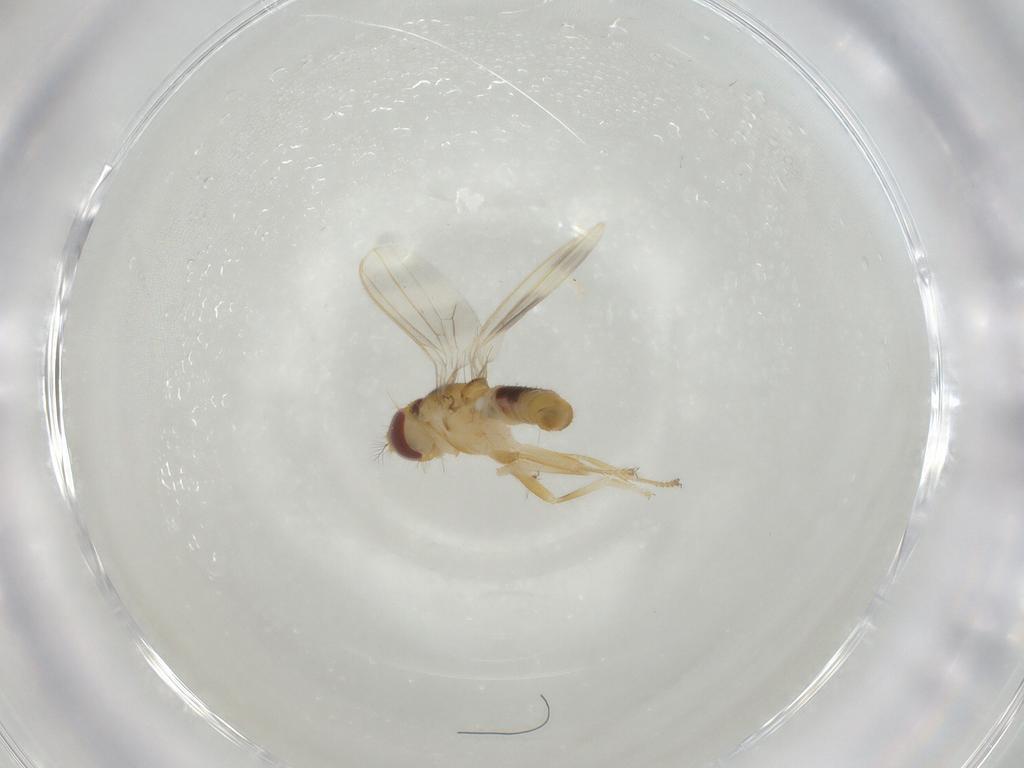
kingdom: Animalia
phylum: Arthropoda
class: Insecta
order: Diptera
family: Periscelididae
